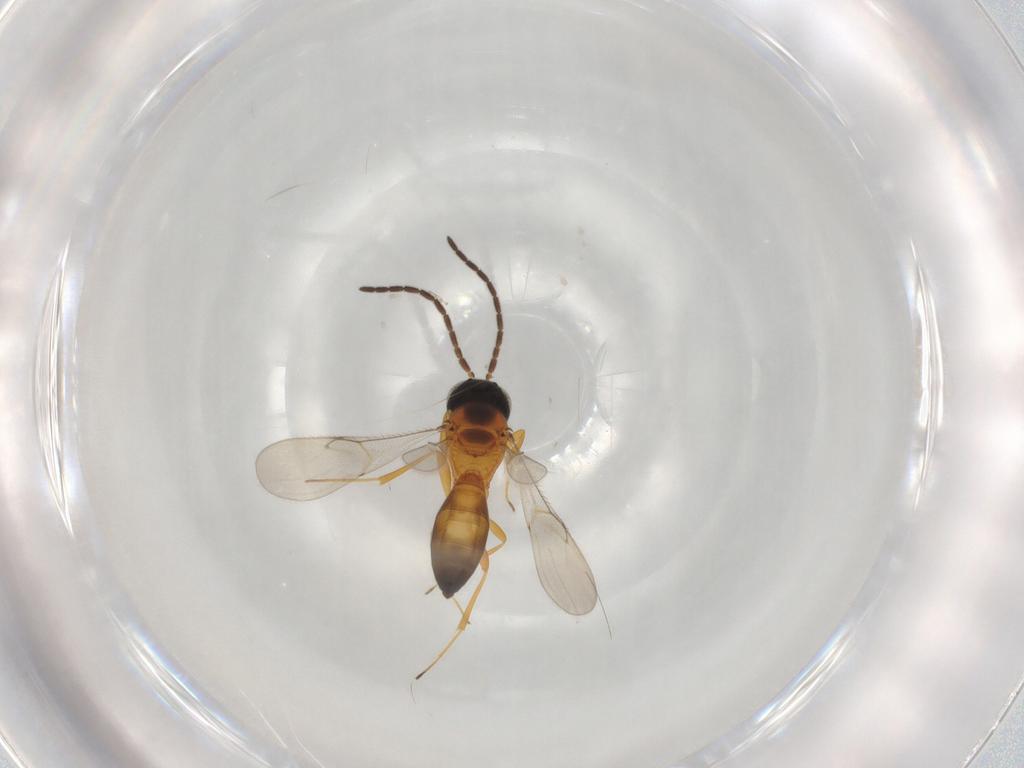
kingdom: Animalia
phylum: Arthropoda
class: Insecta
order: Hymenoptera
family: Scelionidae
